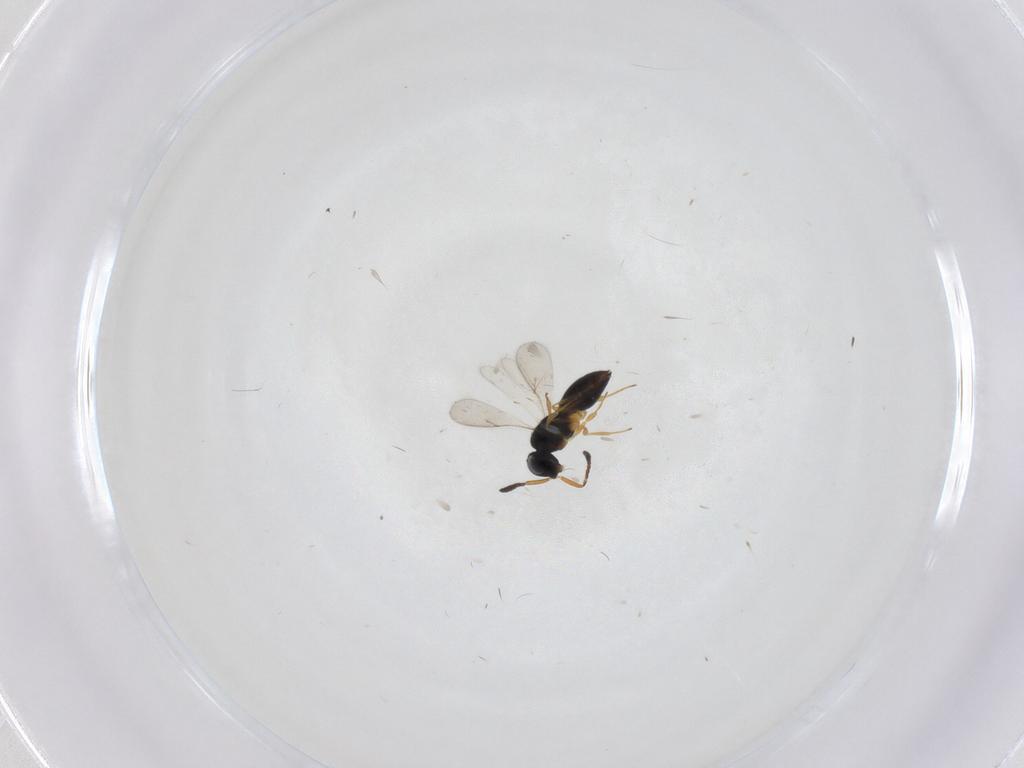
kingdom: Animalia
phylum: Arthropoda
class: Insecta
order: Hymenoptera
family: Scelionidae
